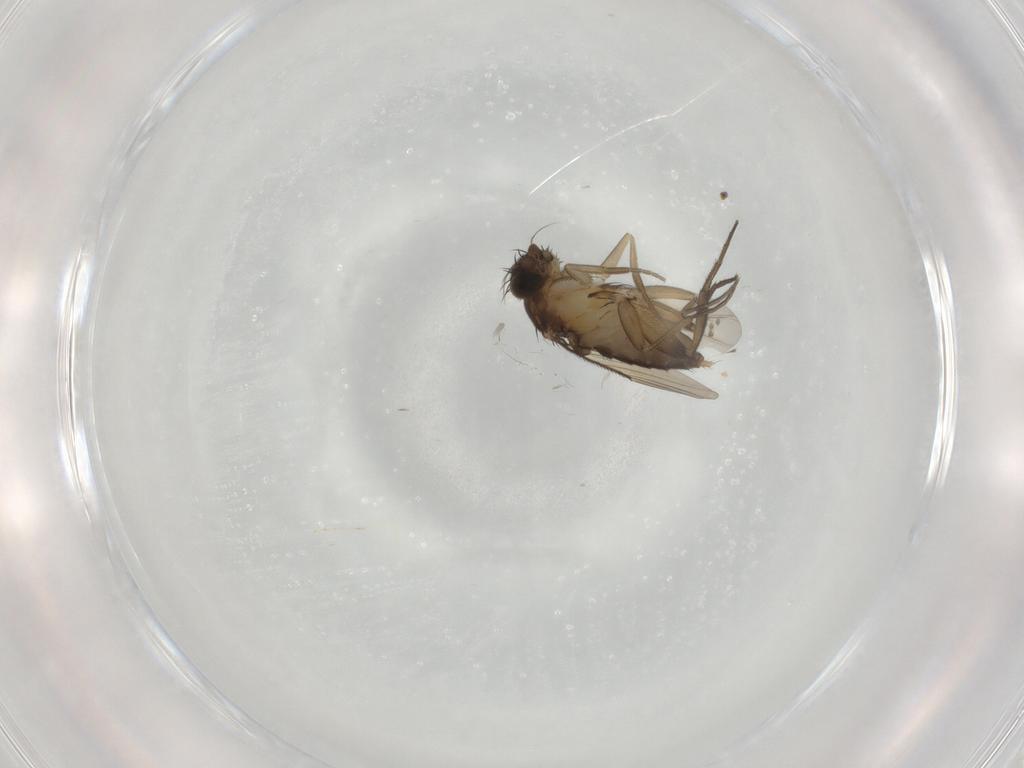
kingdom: Animalia
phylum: Arthropoda
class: Insecta
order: Diptera
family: Phoridae
